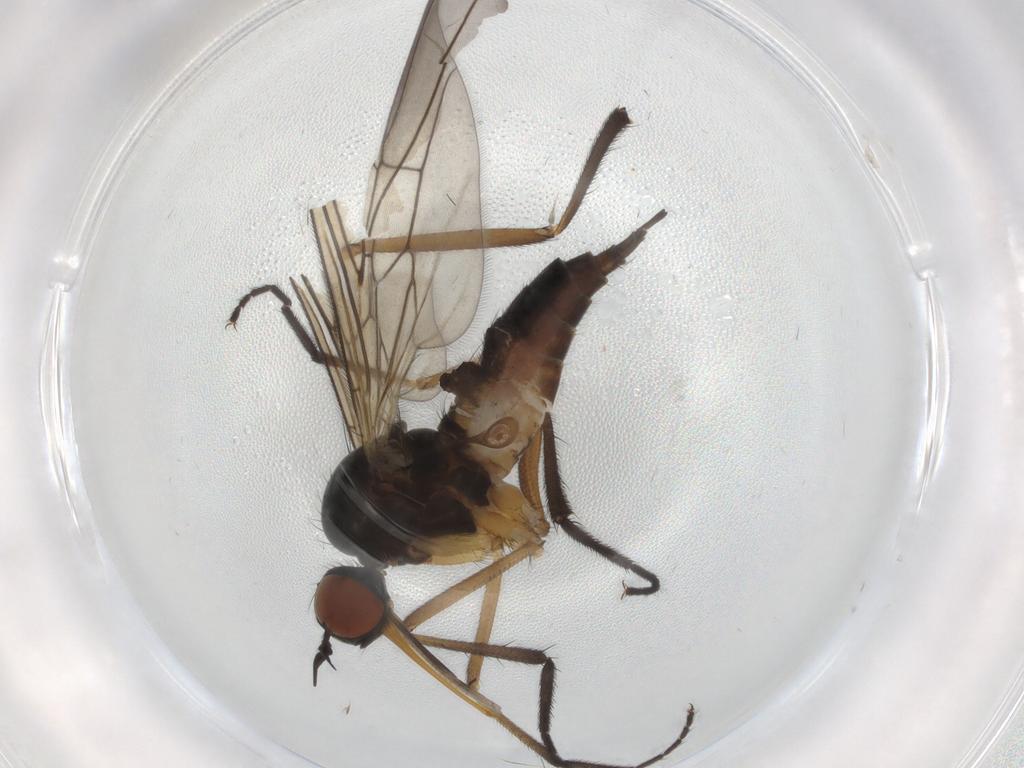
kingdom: Animalia
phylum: Arthropoda
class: Insecta
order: Diptera
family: Empididae
